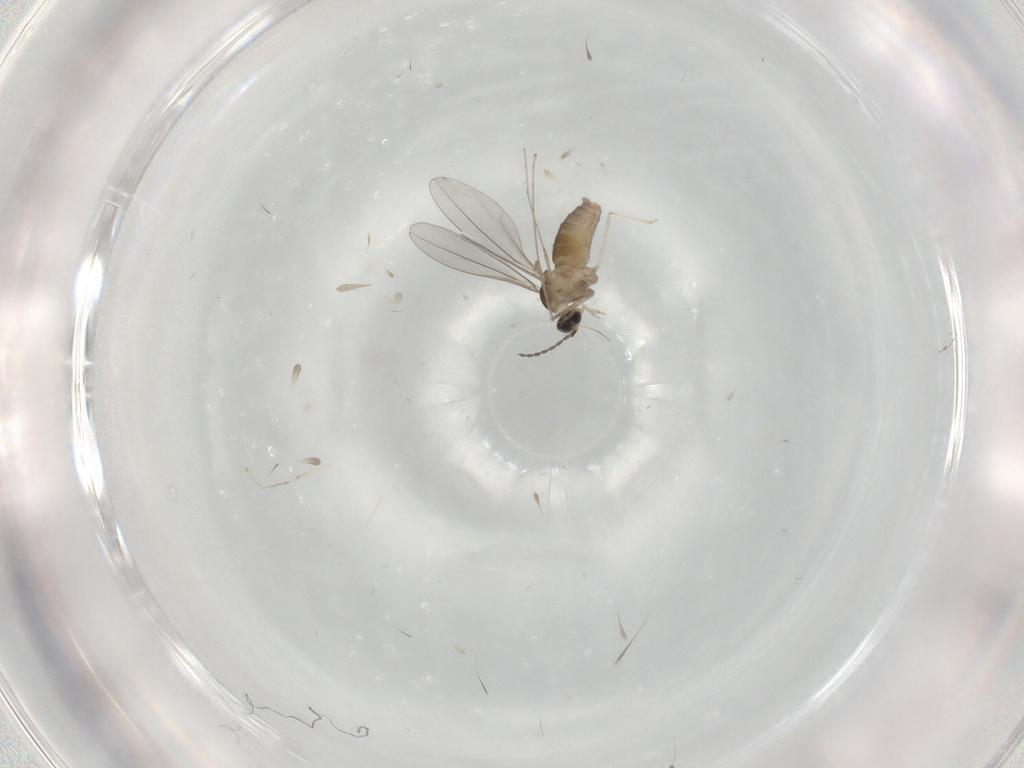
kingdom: Animalia
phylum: Arthropoda
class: Insecta
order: Diptera
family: Psychodidae
